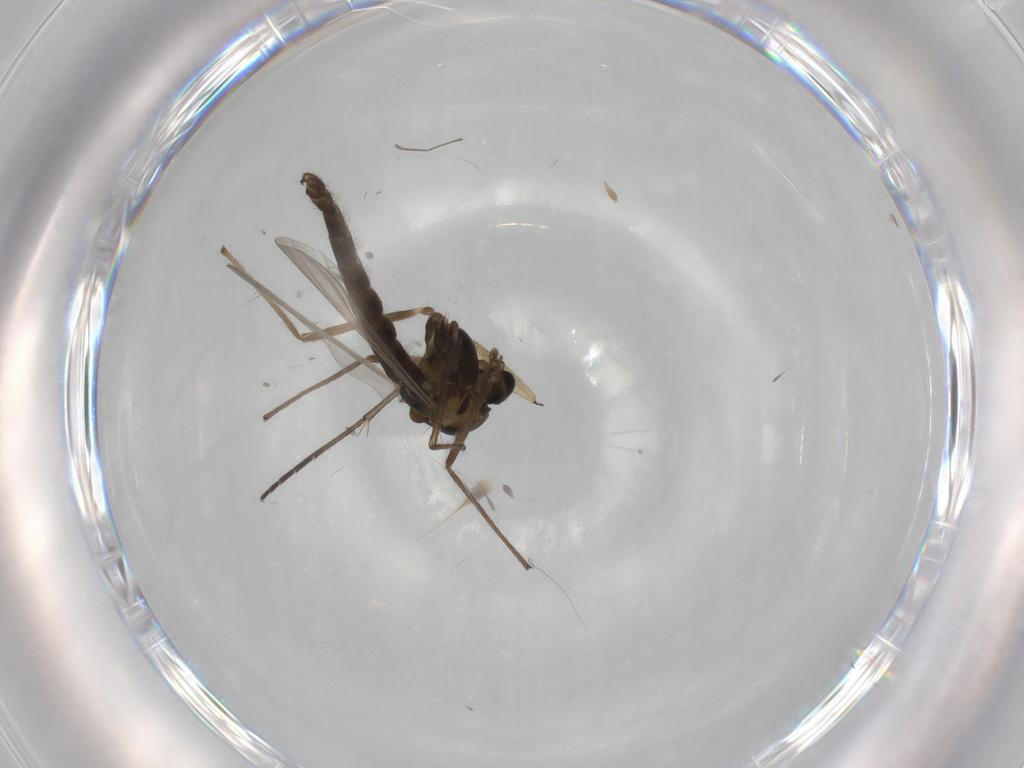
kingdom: Animalia
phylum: Arthropoda
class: Insecta
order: Diptera
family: Sciaridae
